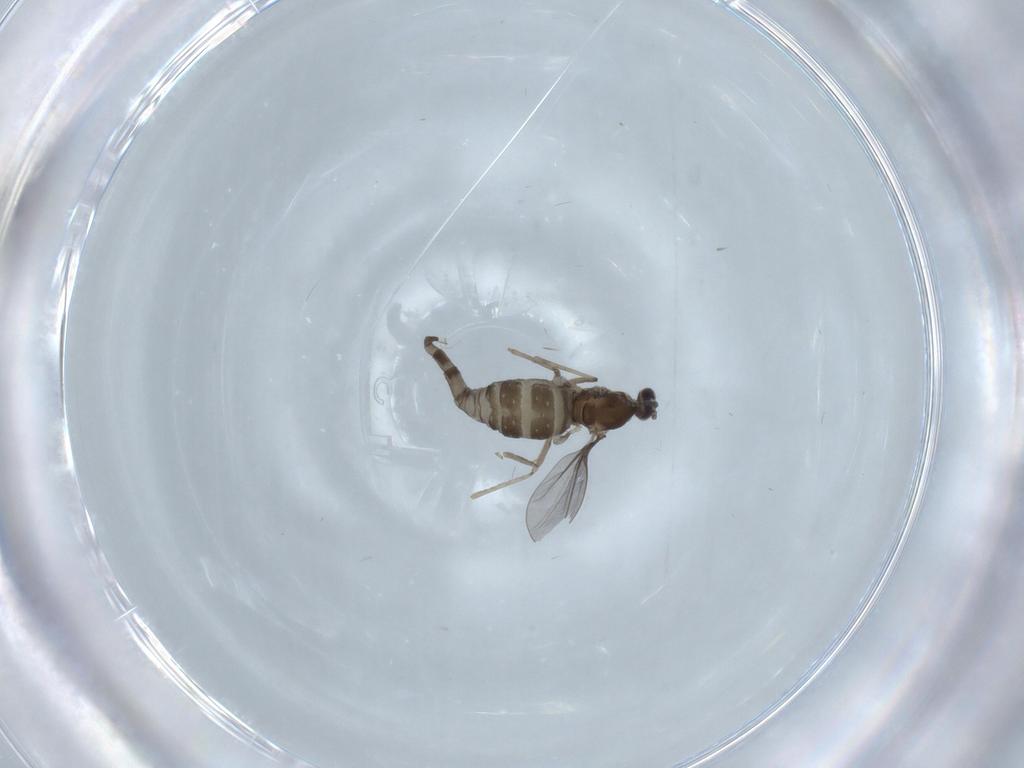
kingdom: Animalia
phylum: Arthropoda
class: Insecta
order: Diptera
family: Cecidomyiidae
